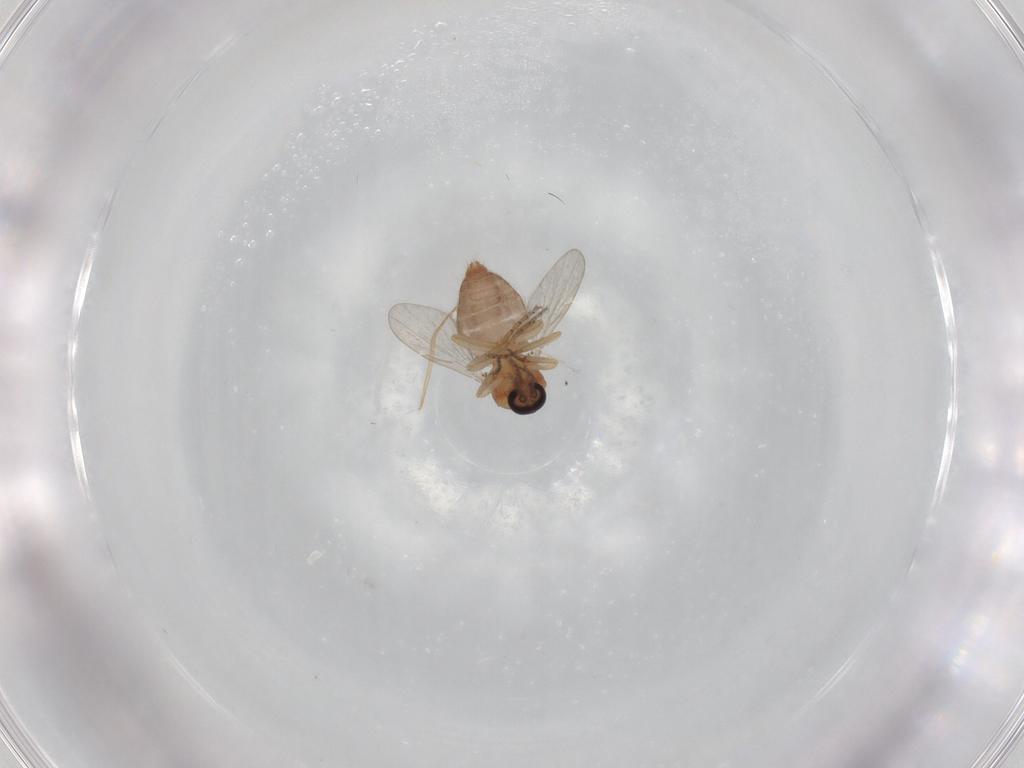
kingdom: Animalia
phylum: Arthropoda
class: Insecta
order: Diptera
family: Ceratopogonidae
